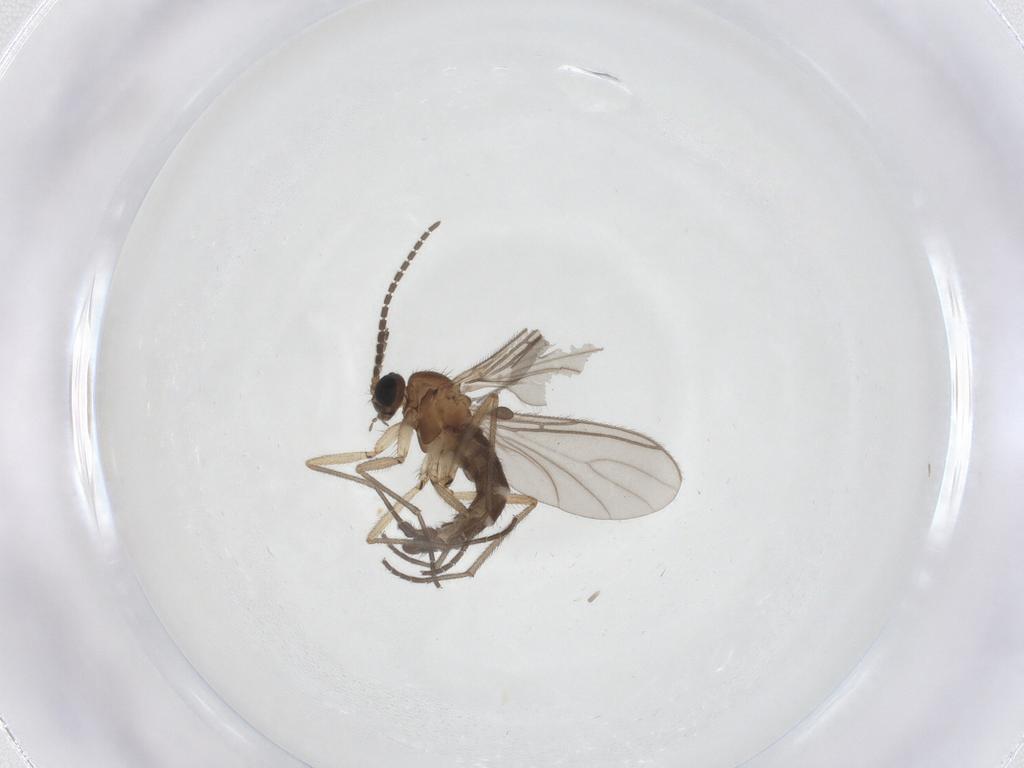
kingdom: Animalia
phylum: Arthropoda
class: Insecta
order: Diptera
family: Sciaridae
